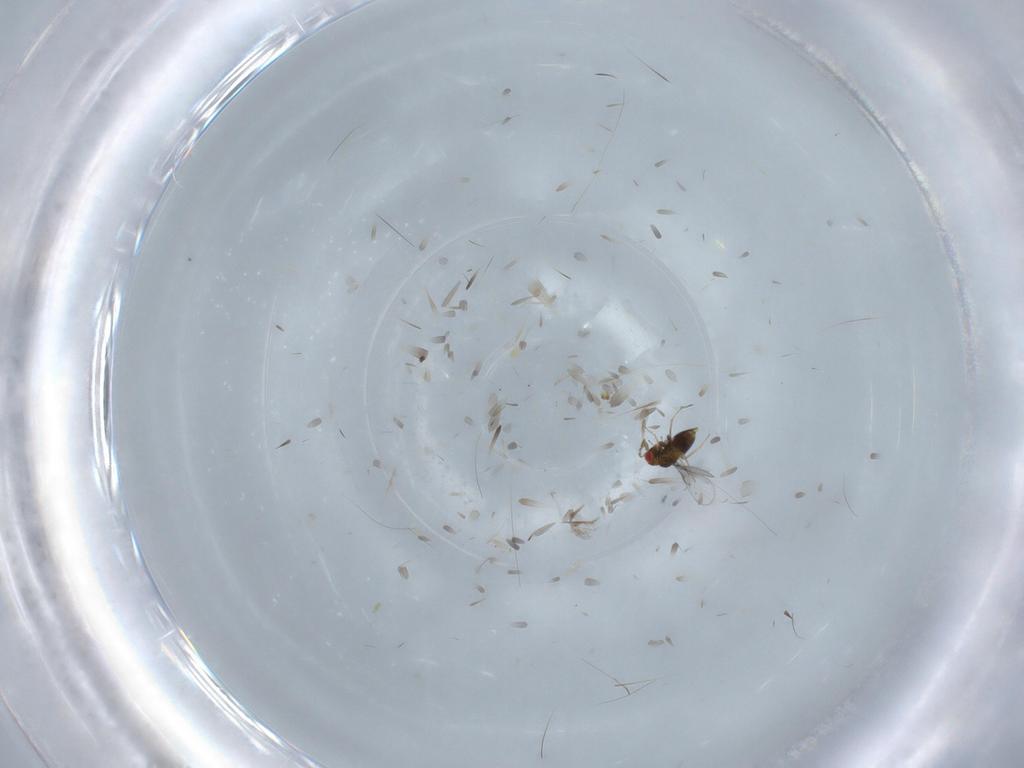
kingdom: Animalia
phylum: Arthropoda
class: Insecta
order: Hymenoptera
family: Trichogrammatidae
